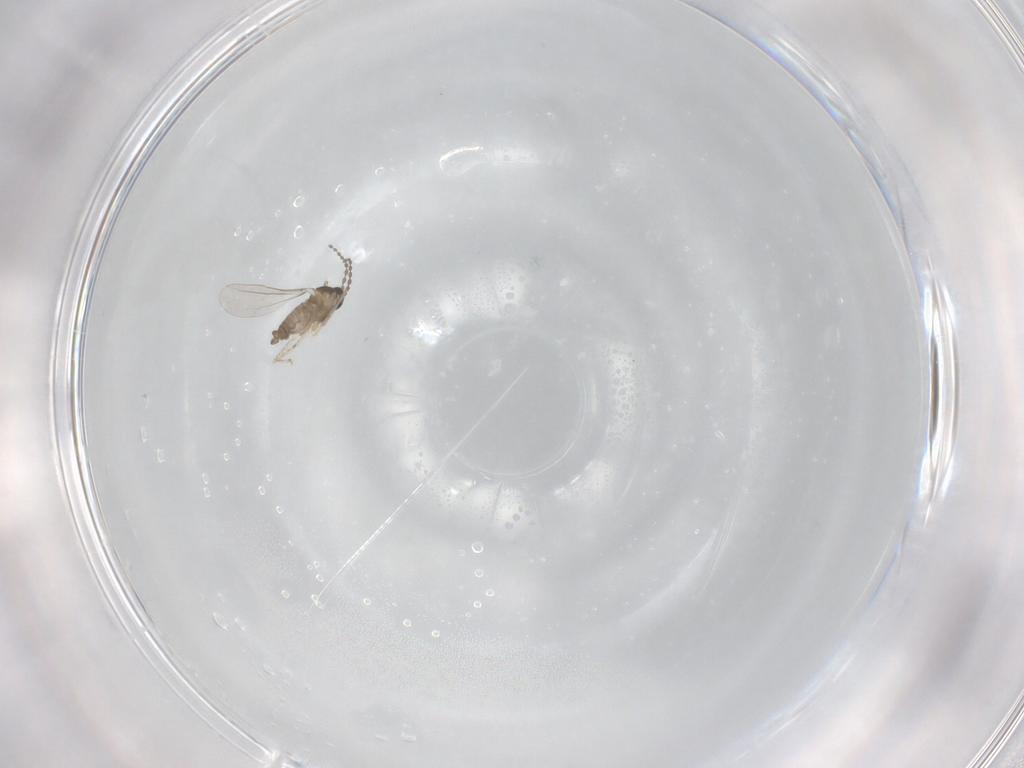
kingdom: Animalia
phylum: Arthropoda
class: Insecta
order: Diptera
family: Cecidomyiidae
